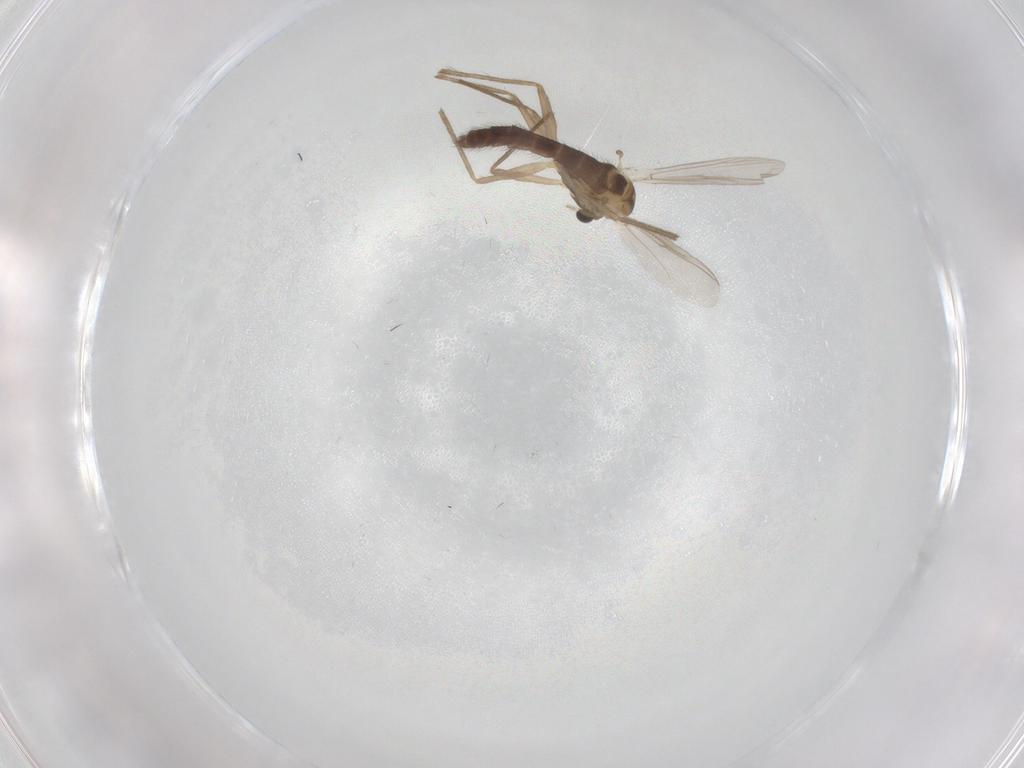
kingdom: Animalia
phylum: Arthropoda
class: Insecta
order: Diptera
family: Chironomidae
